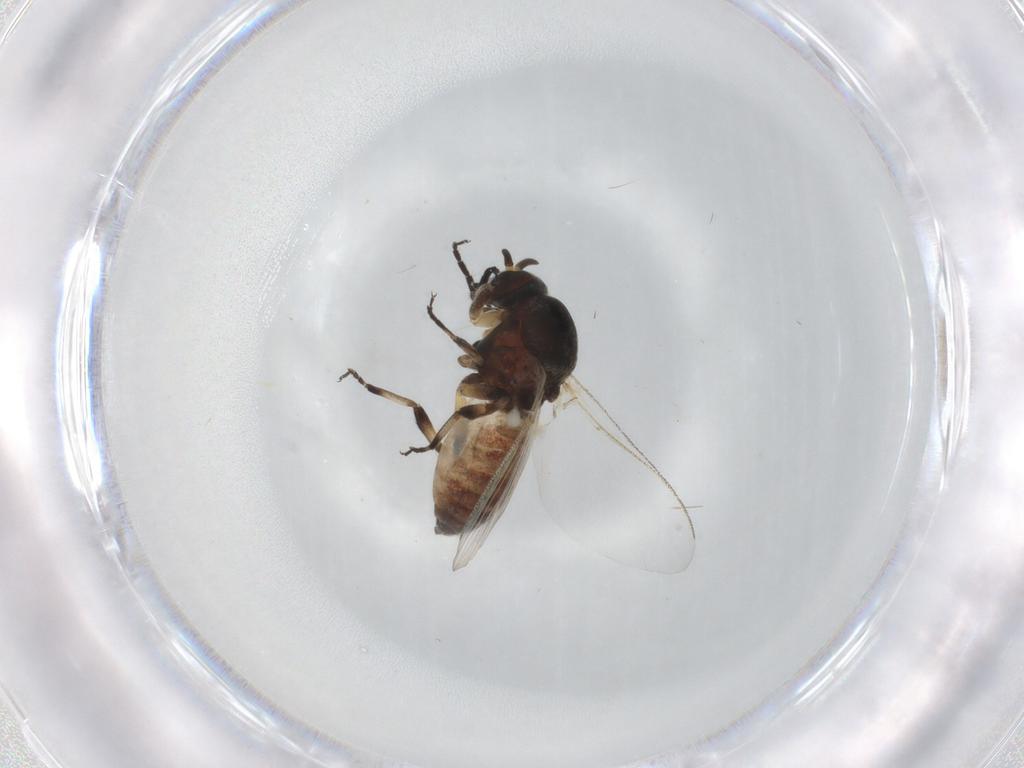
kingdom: Animalia
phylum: Arthropoda
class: Insecta
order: Diptera
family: Simuliidae
